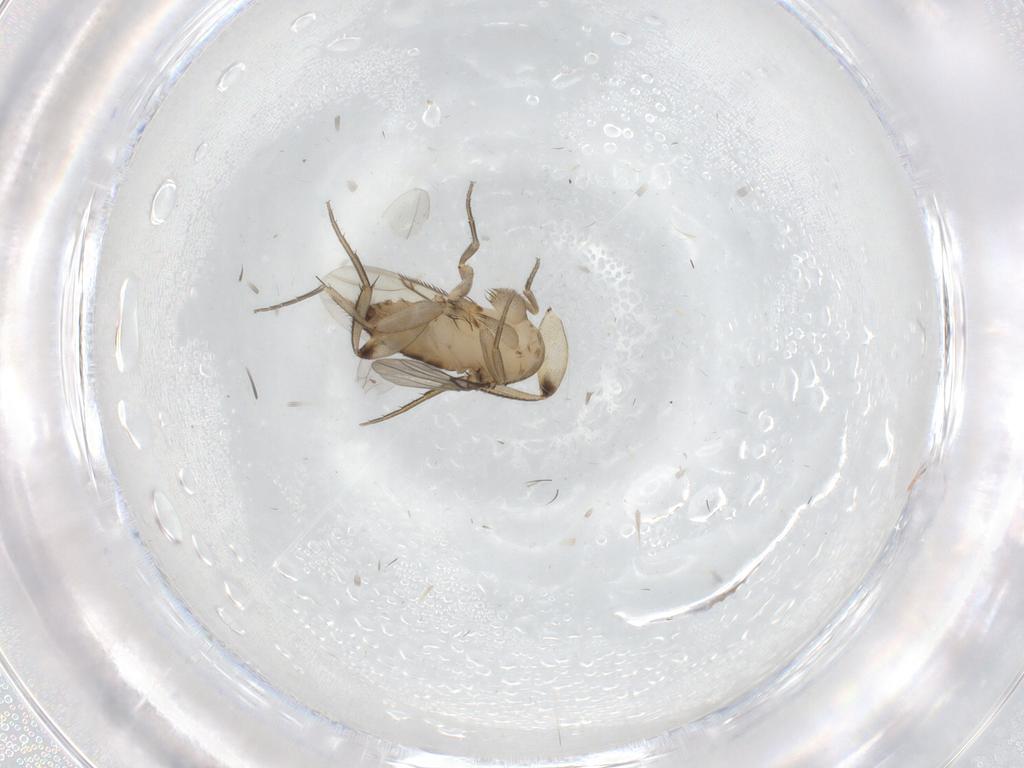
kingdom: Animalia
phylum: Arthropoda
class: Insecta
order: Diptera
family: Phoridae
